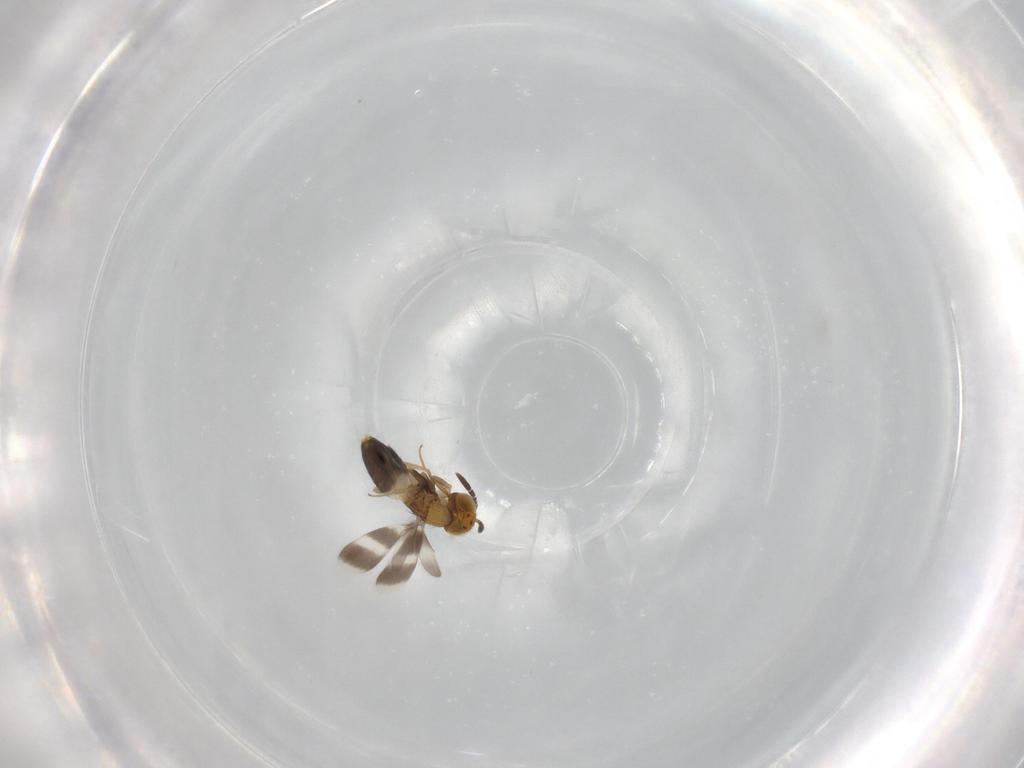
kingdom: Animalia
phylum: Arthropoda
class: Insecta
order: Hymenoptera
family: Aphelinidae
